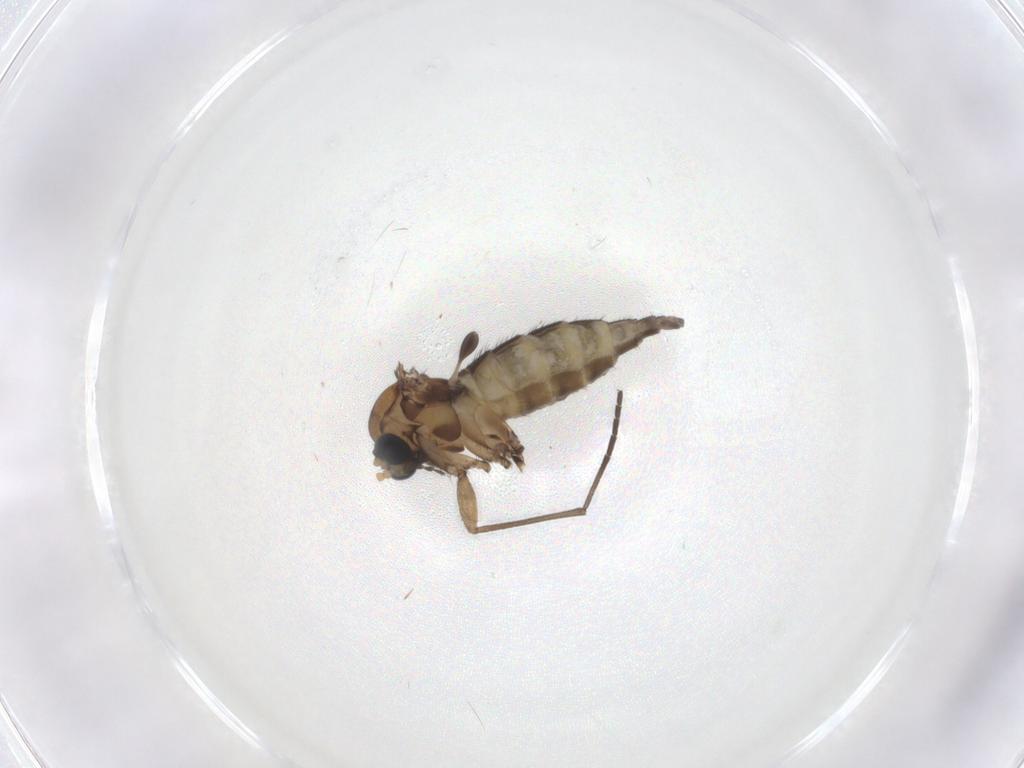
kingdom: Animalia
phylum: Arthropoda
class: Insecta
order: Diptera
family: Sciaridae
